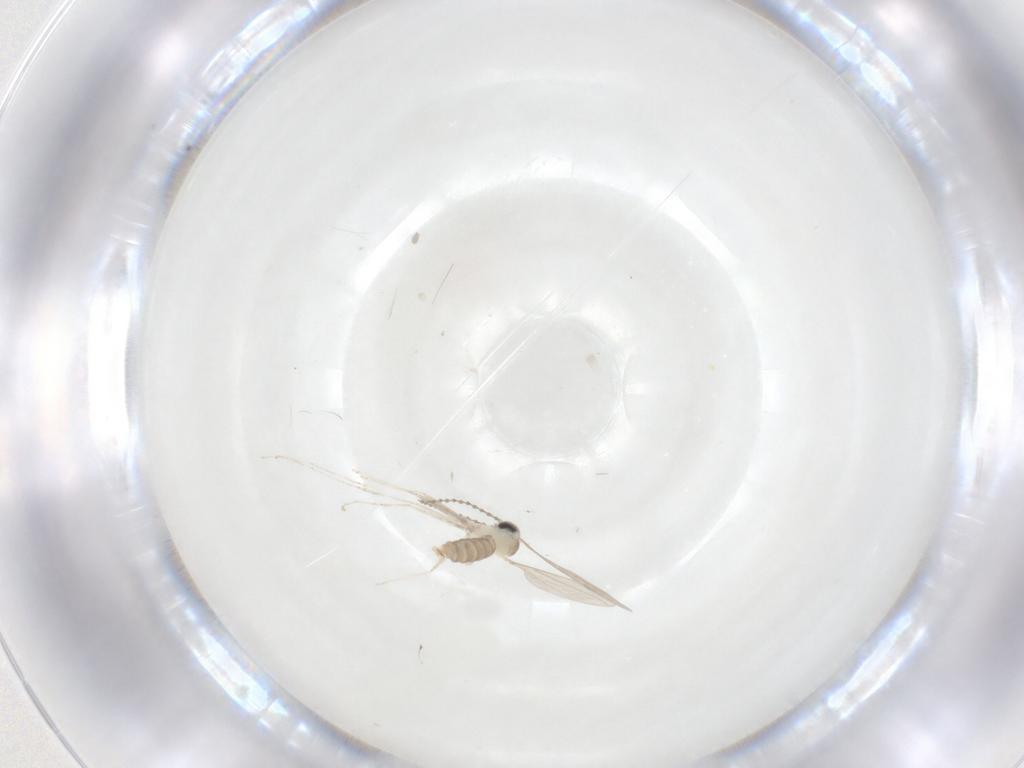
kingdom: Animalia
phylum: Arthropoda
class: Insecta
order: Diptera
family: Cecidomyiidae
